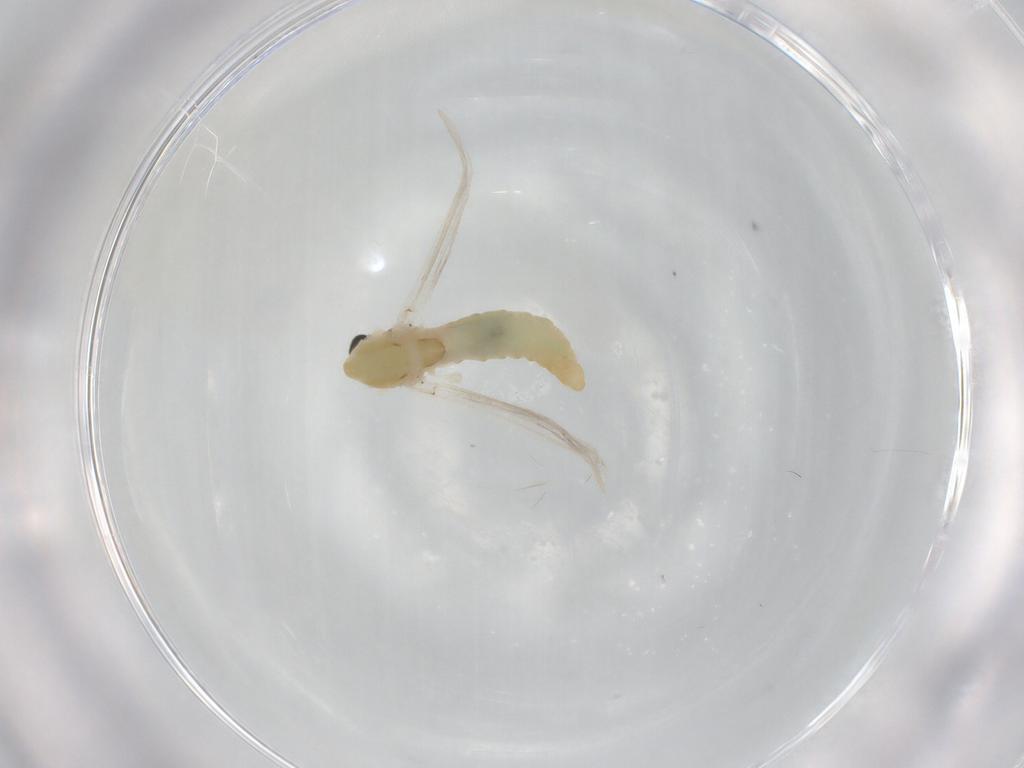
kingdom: Animalia
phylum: Arthropoda
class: Insecta
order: Diptera
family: Chironomidae
